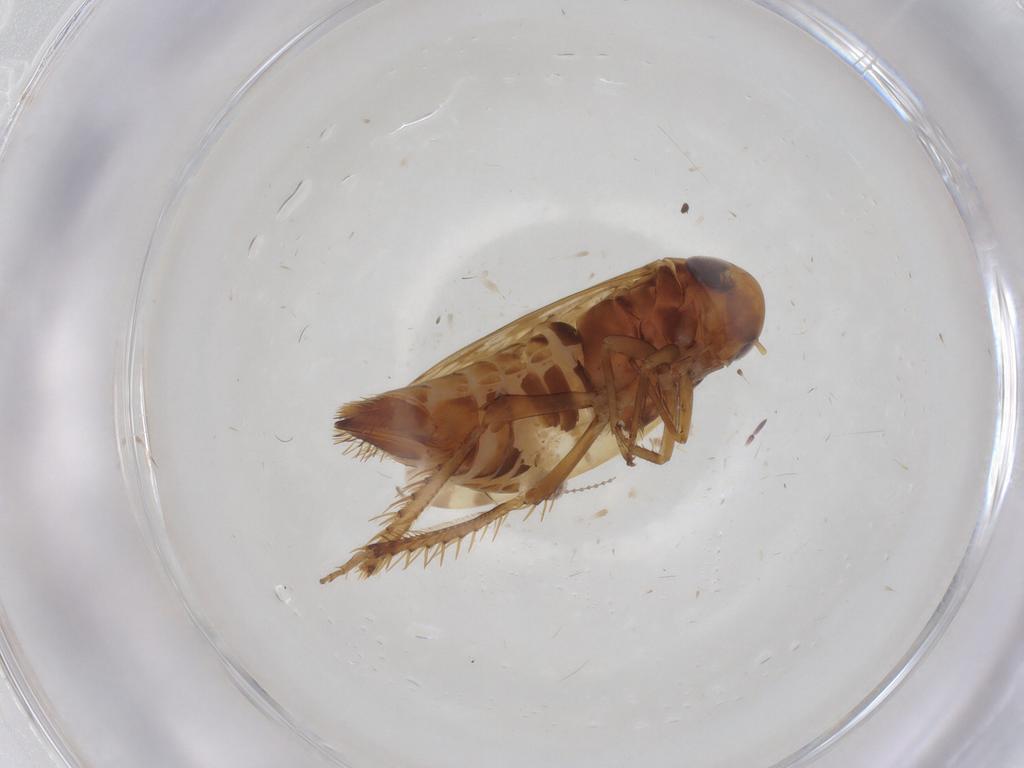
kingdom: Animalia
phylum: Arthropoda
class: Insecta
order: Hemiptera
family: Cicadellidae
